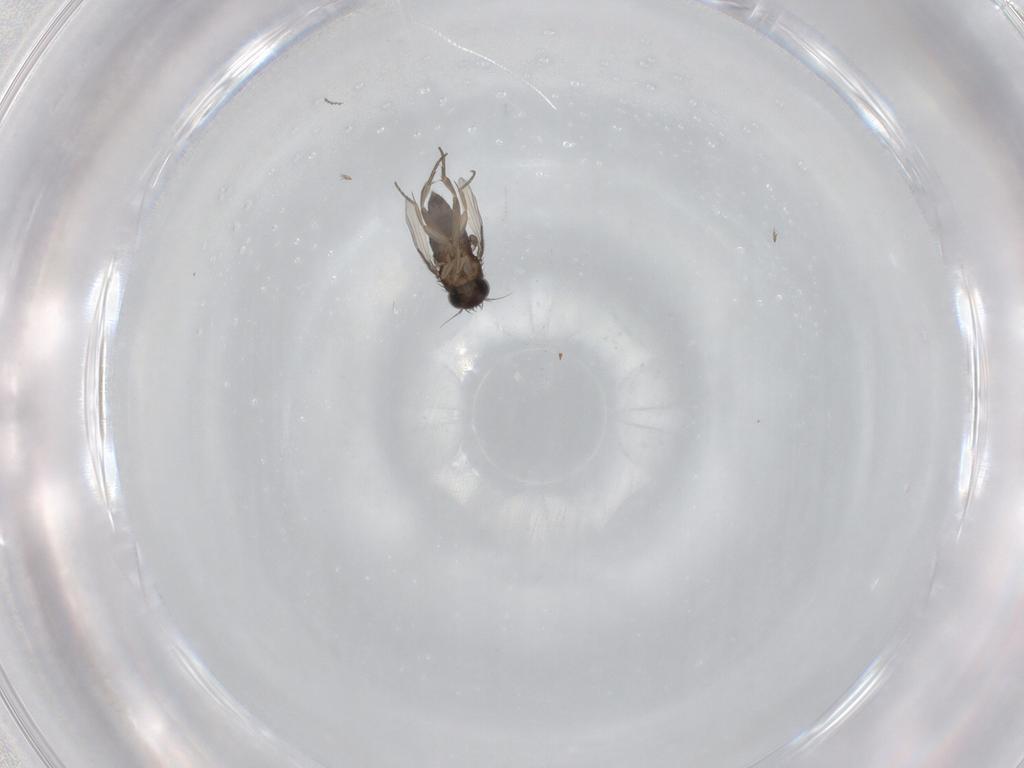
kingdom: Animalia
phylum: Arthropoda
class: Insecta
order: Diptera
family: Phoridae
